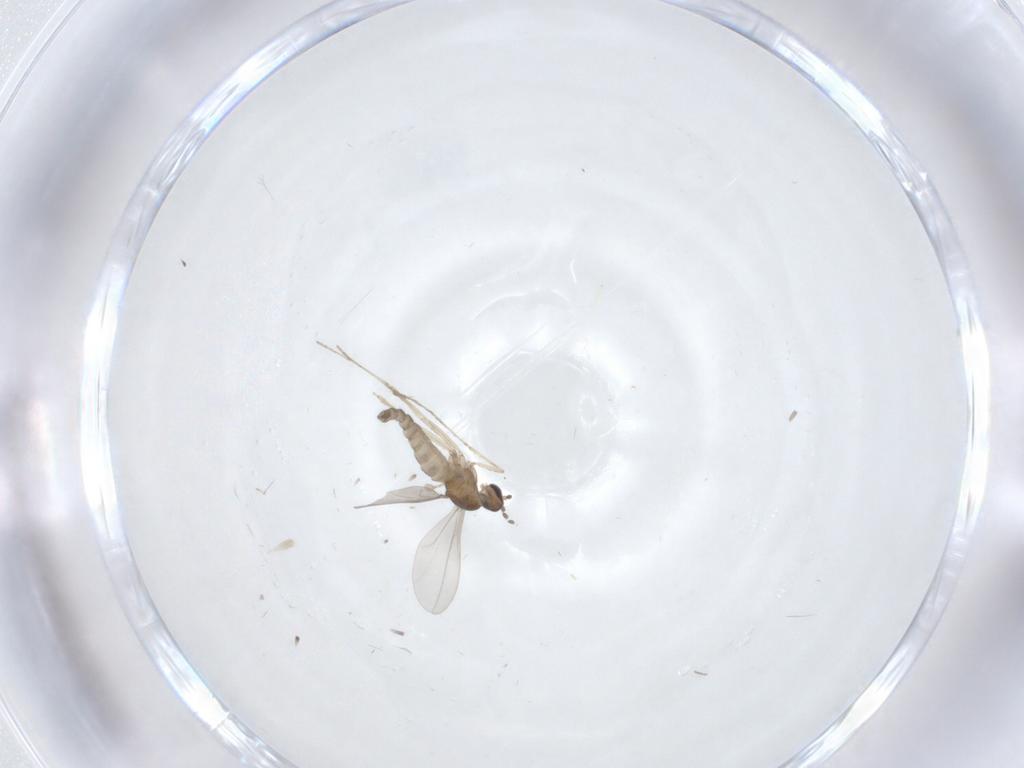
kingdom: Animalia
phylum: Arthropoda
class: Insecta
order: Diptera
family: Cecidomyiidae
